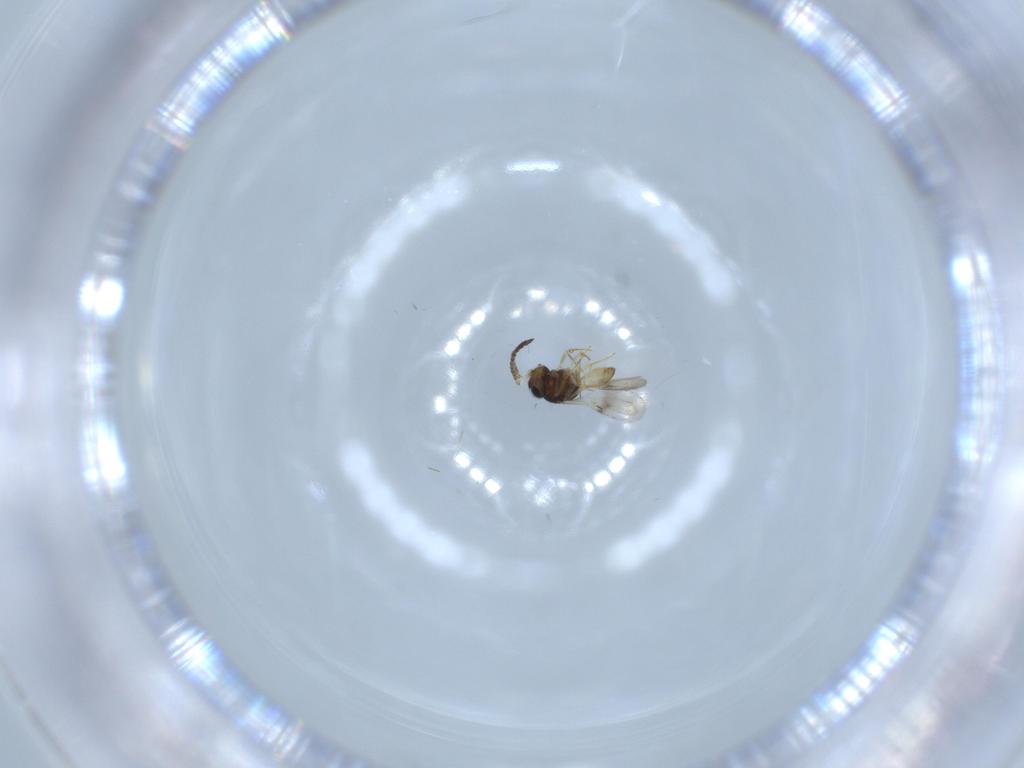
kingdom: Animalia
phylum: Arthropoda
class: Insecta
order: Hymenoptera
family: Scelionidae
